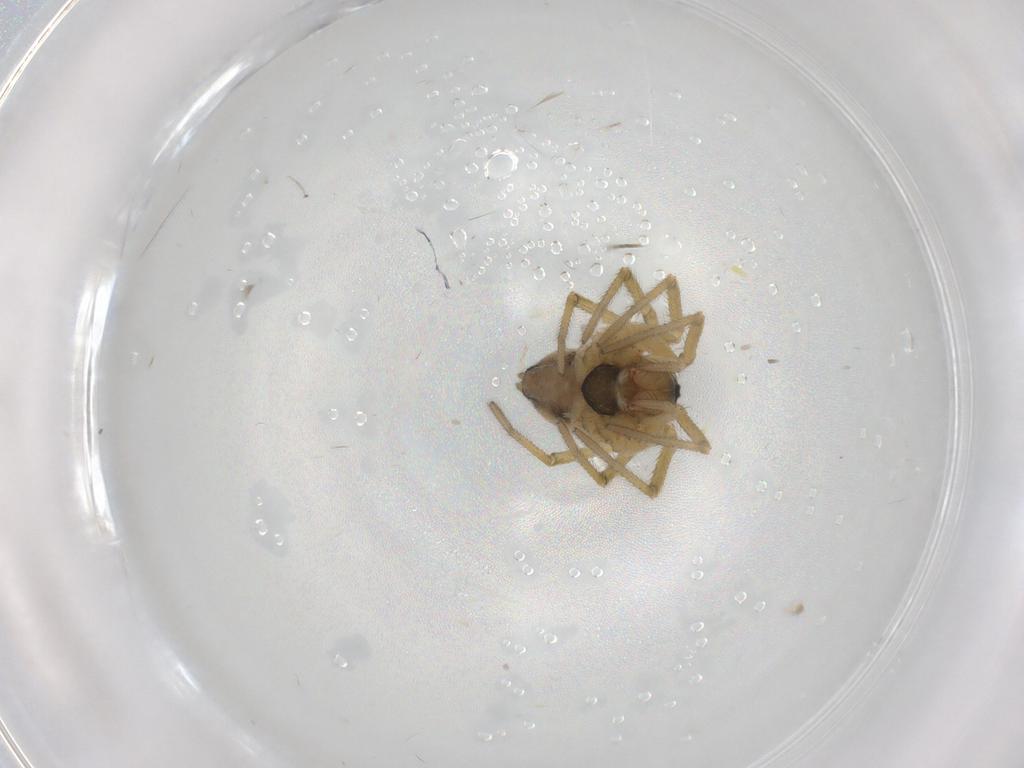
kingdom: Animalia
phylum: Arthropoda
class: Arachnida
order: Araneae
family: Linyphiidae
